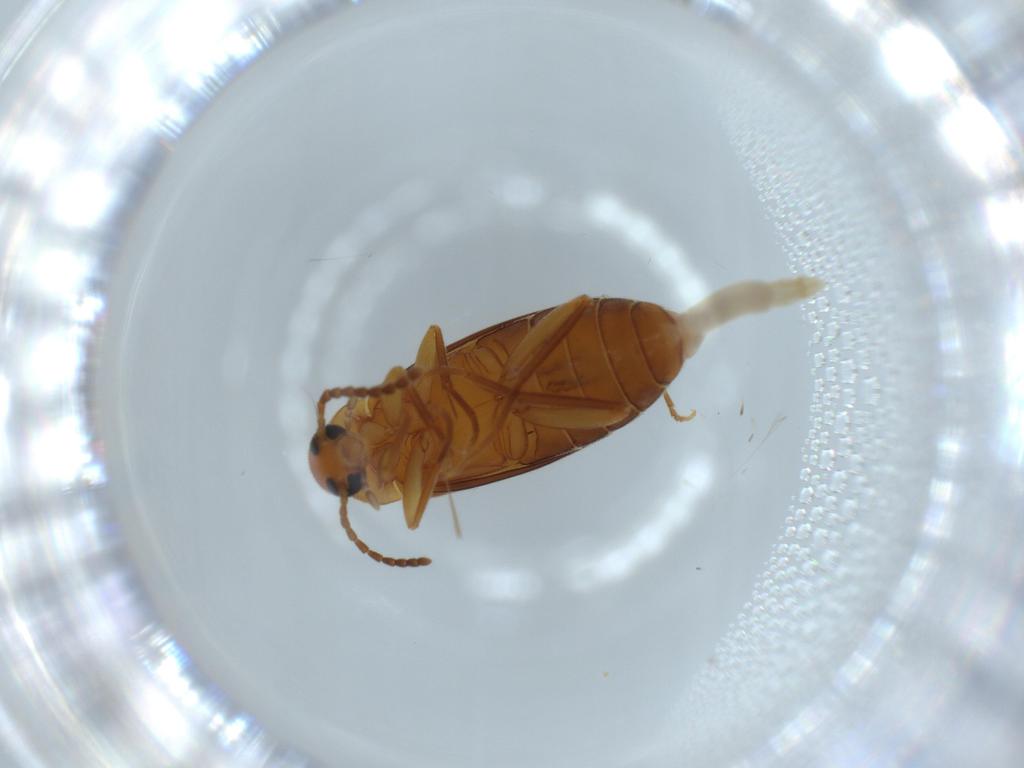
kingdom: Animalia
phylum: Arthropoda
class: Insecta
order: Coleoptera
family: Scraptiidae
